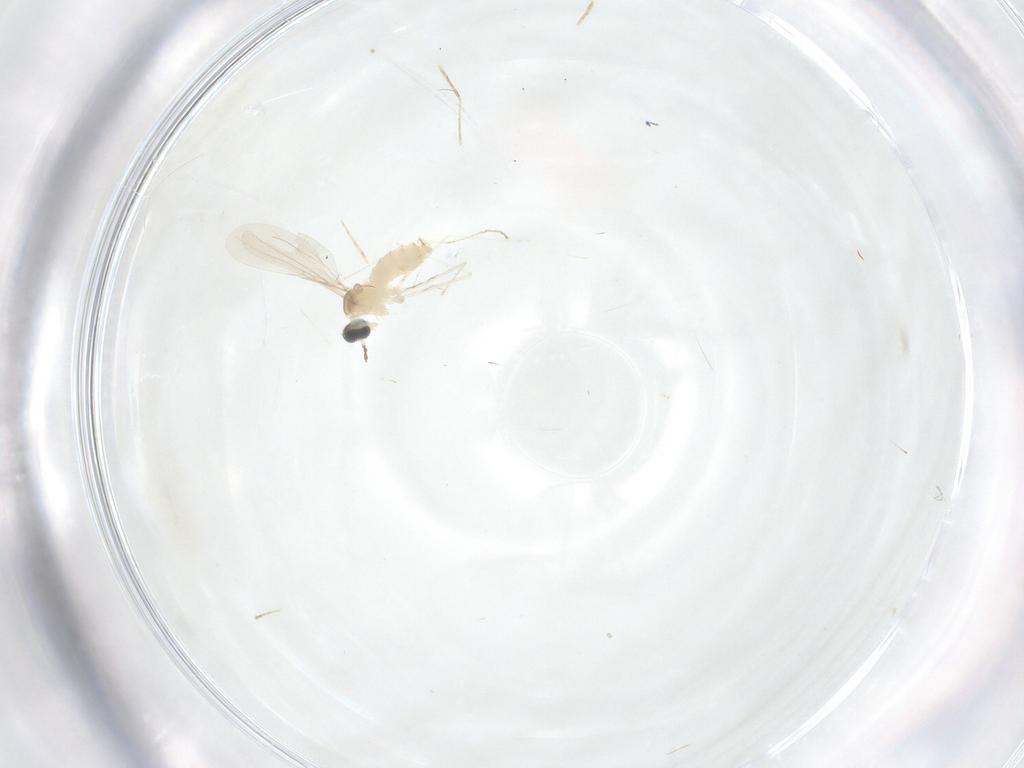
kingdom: Animalia
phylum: Arthropoda
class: Insecta
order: Diptera
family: Cecidomyiidae
